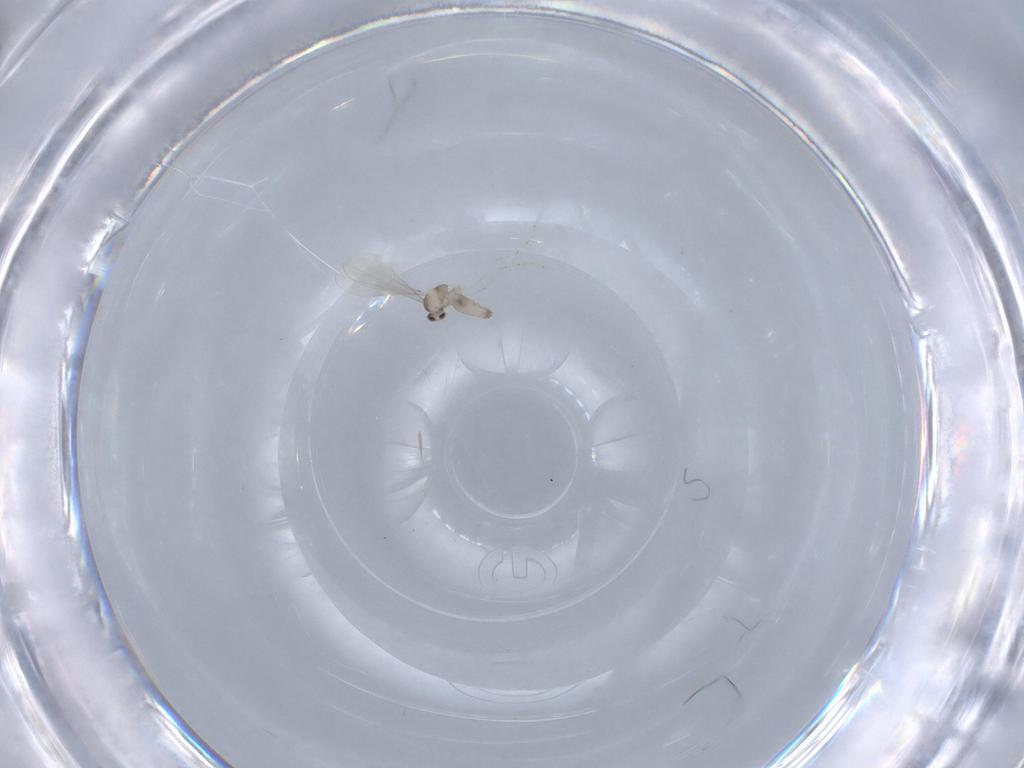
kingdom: Animalia
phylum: Arthropoda
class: Insecta
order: Diptera
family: Cecidomyiidae
